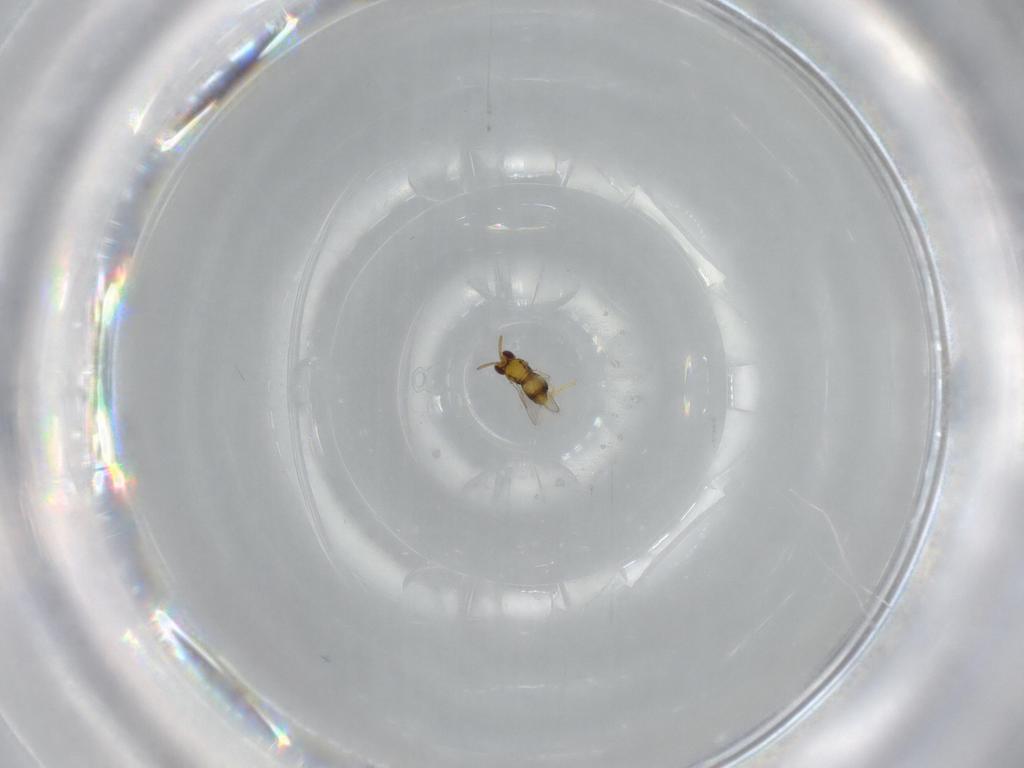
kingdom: Animalia
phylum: Arthropoda
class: Insecta
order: Hymenoptera
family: Aphelinidae
